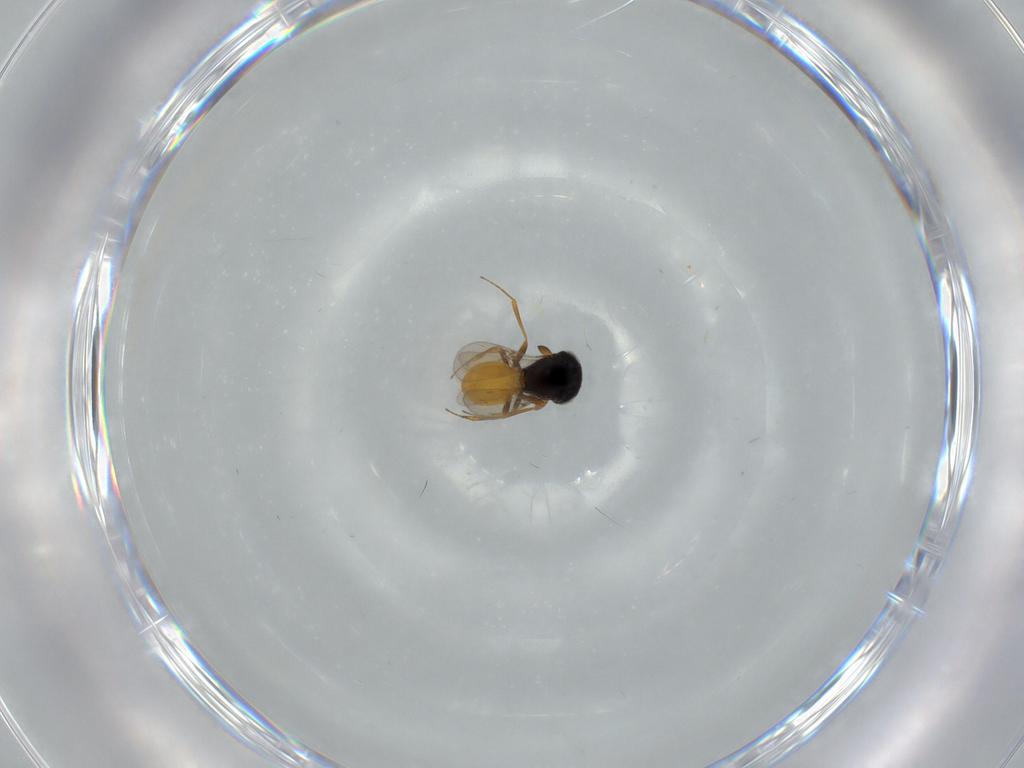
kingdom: Animalia
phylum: Arthropoda
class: Insecta
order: Hymenoptera
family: Scelionidae
